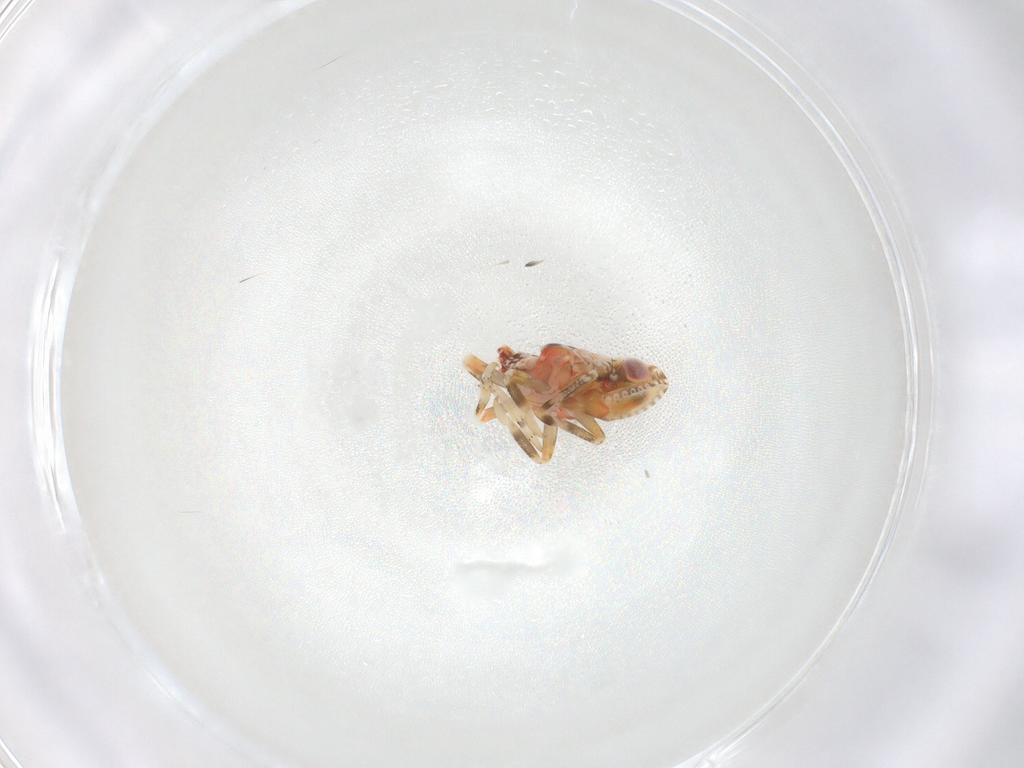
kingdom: Animalia
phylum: Arthropoda
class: Insecta
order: Hemiptera
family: Tropiduchidae
